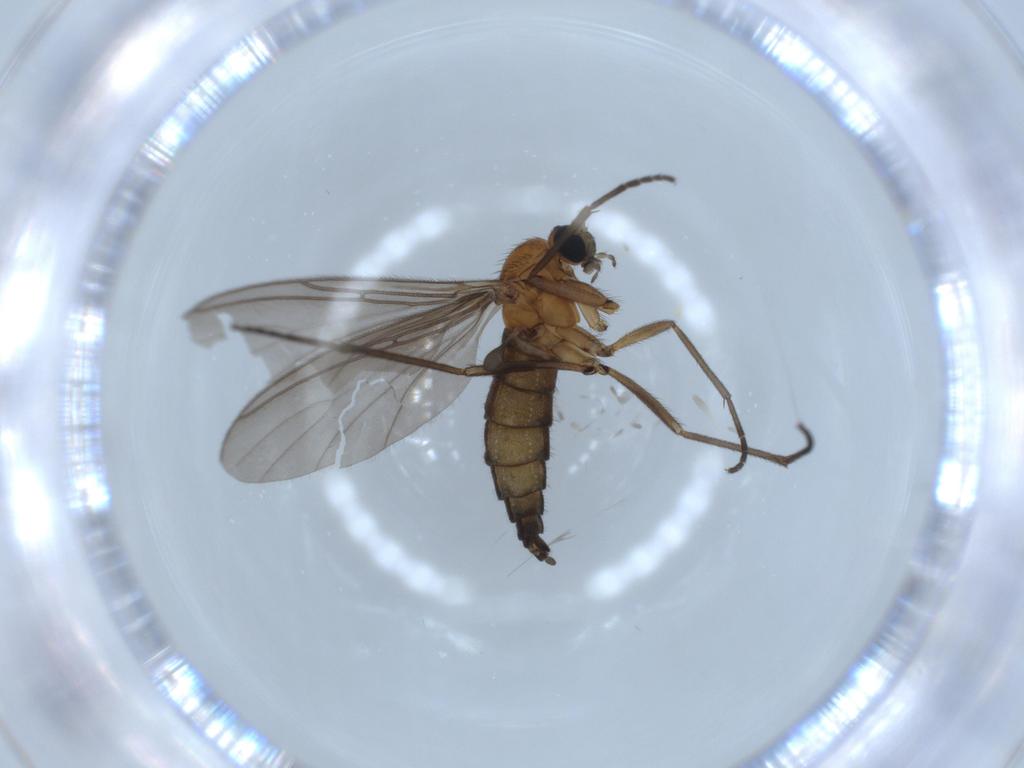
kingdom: Animalia
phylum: Arthropoda
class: Insecta
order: Diptera
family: Sciaridae
